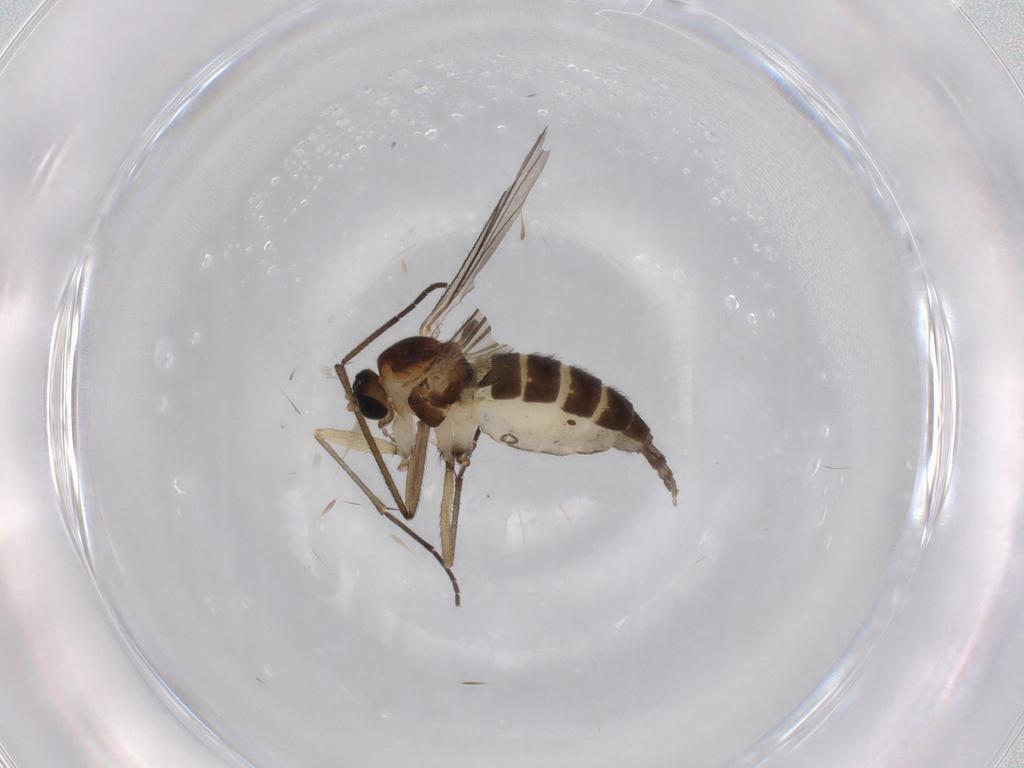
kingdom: Animalia
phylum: Arthropoda
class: Insecta
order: Diptera
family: Sciaridae
